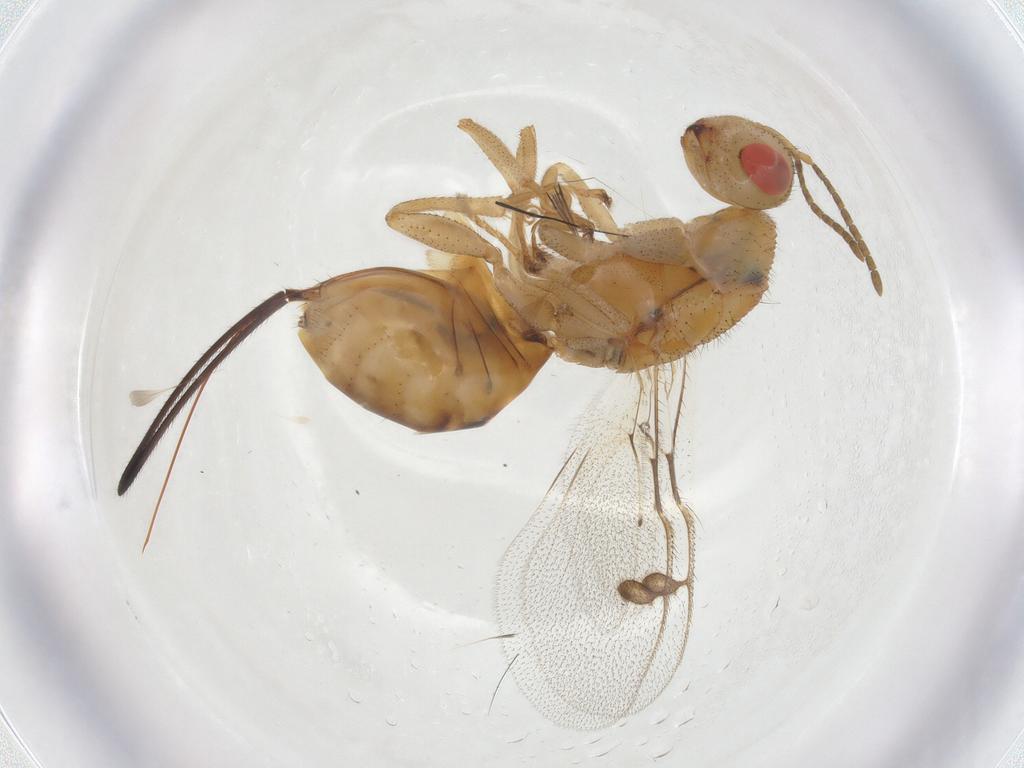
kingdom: Animalia
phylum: Arthropoda
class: Insecta
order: Hymenoptera
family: Megastigmidae
